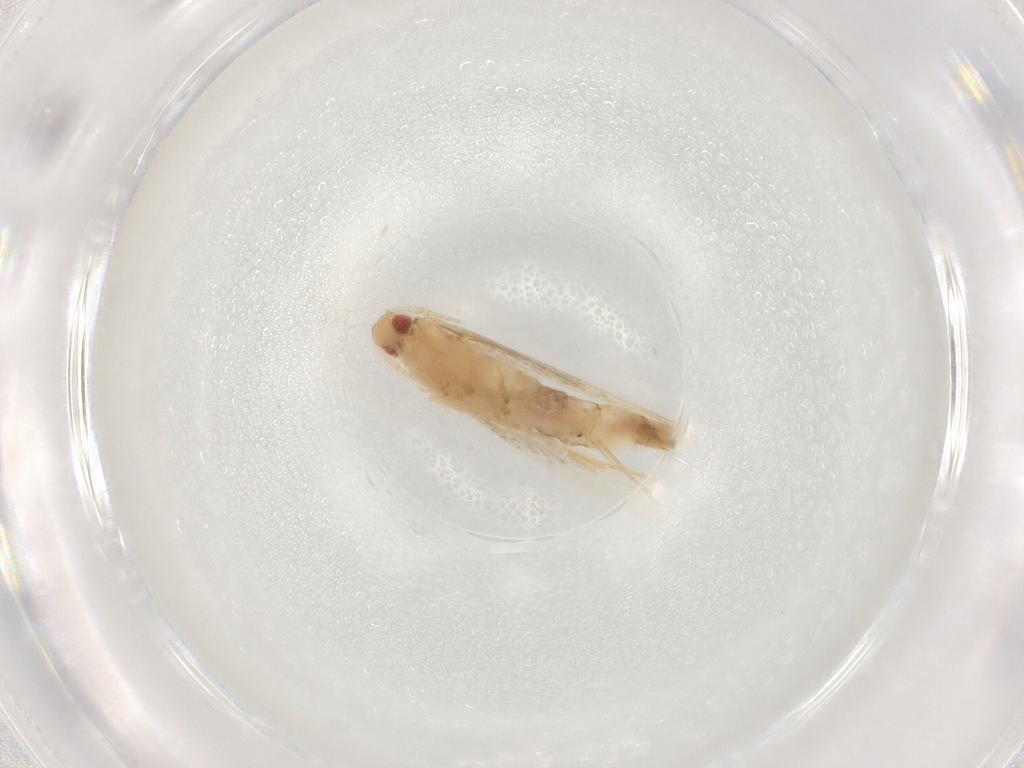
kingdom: Animalia
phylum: Arthropoda
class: Insecta
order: Lepidoptera
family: Cosmopterigidae
